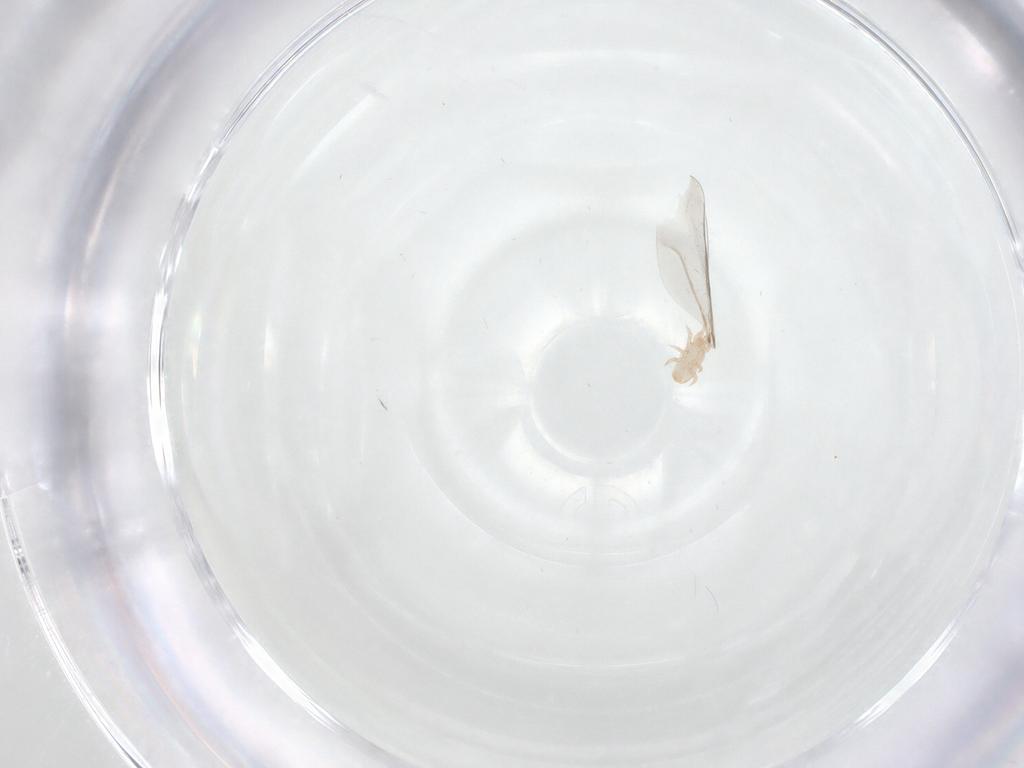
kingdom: Animalia
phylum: Arthropoda
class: Insecta
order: Diptera
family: Cecidomyiidae
